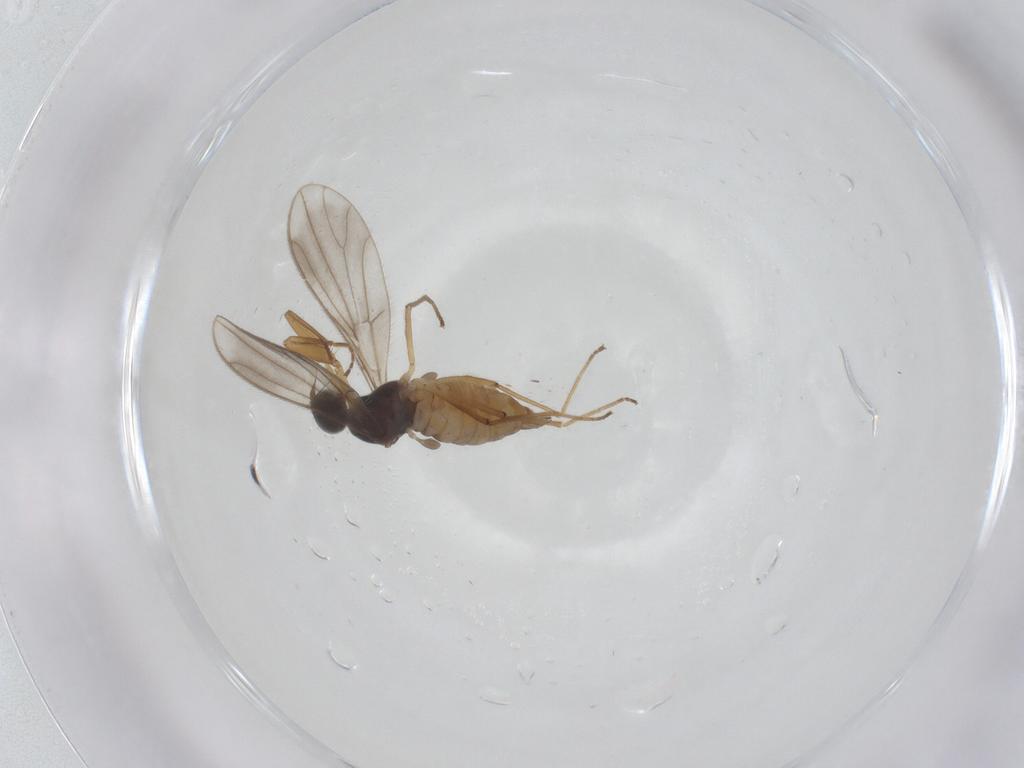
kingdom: Animalia
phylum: Arthropoda
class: Insecta
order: Diptera
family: Empididae
